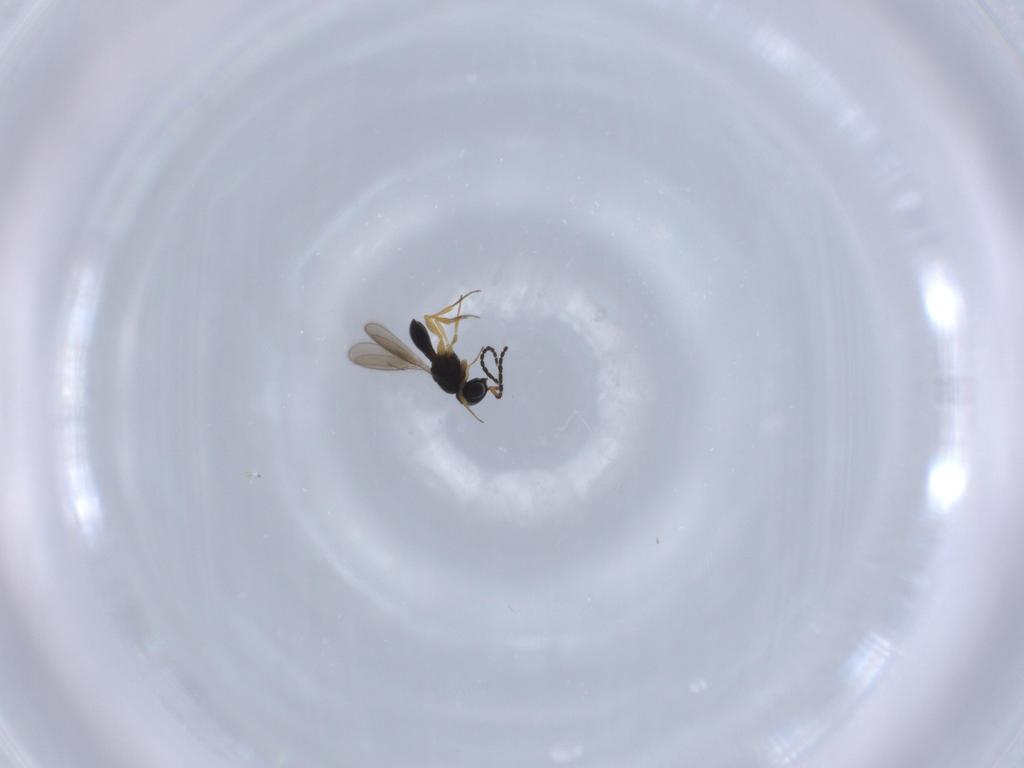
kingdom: Animalia
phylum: Arthropoda
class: Insecta
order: Hymenoptera
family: Scelionidae
